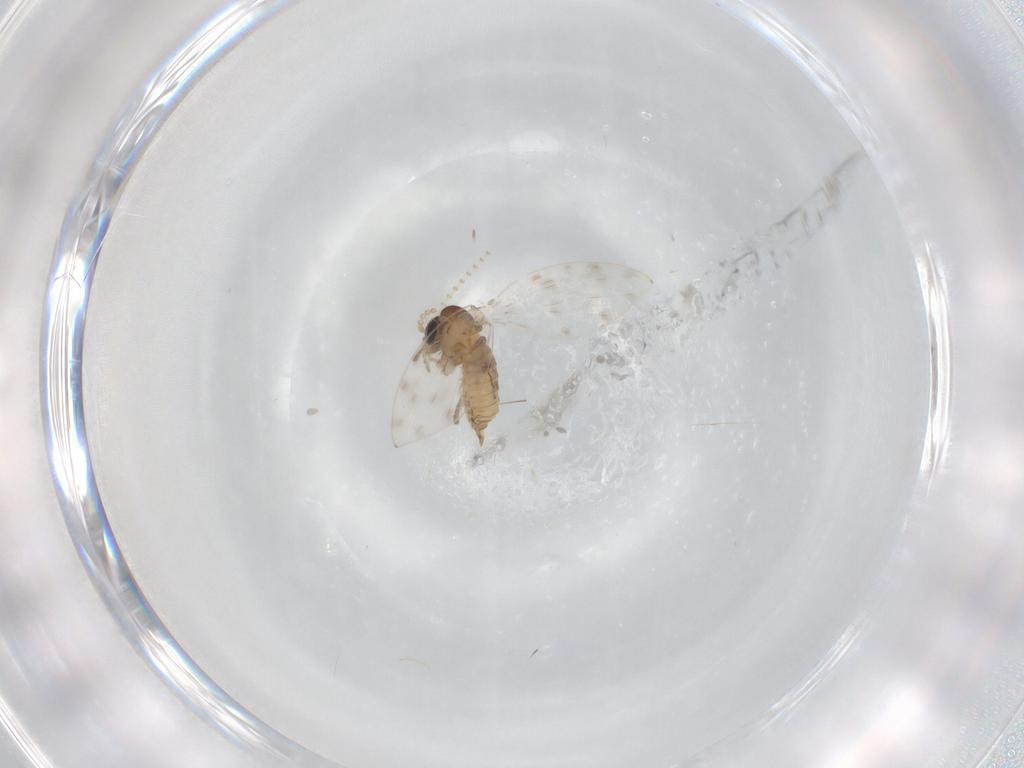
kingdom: Animalia
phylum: Arthropoda
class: Insecta
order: Diptera
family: Psychodidae
